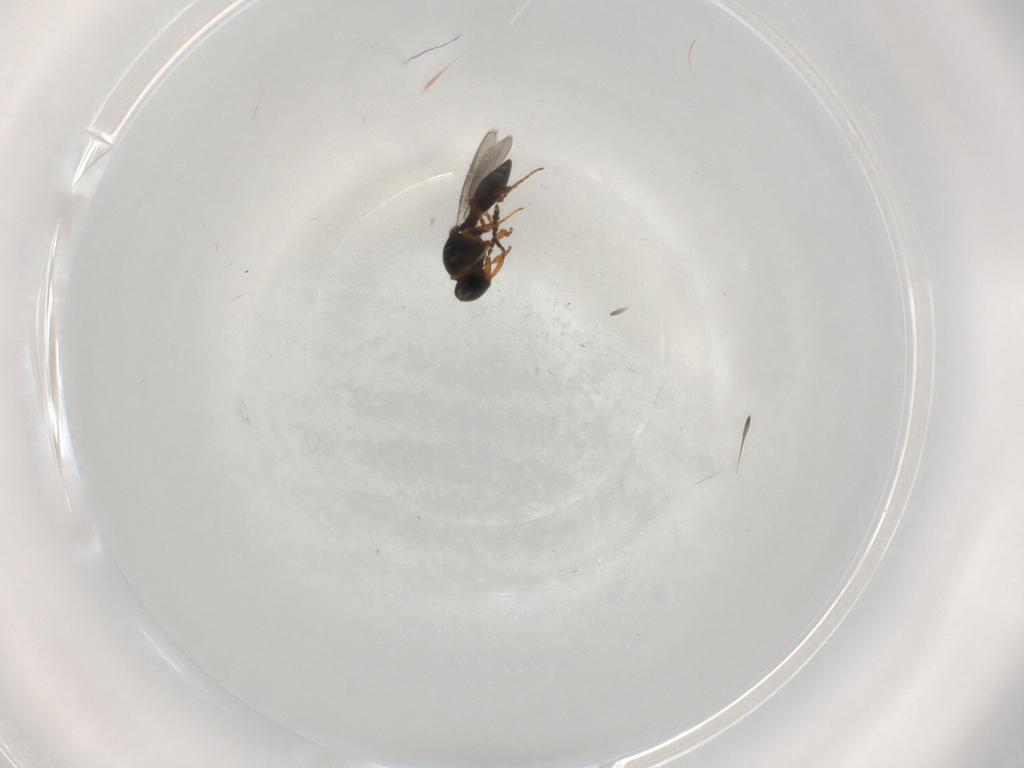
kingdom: Animalia
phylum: Arthropoda
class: Insecta
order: Hymenoptera
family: Platygastridae
